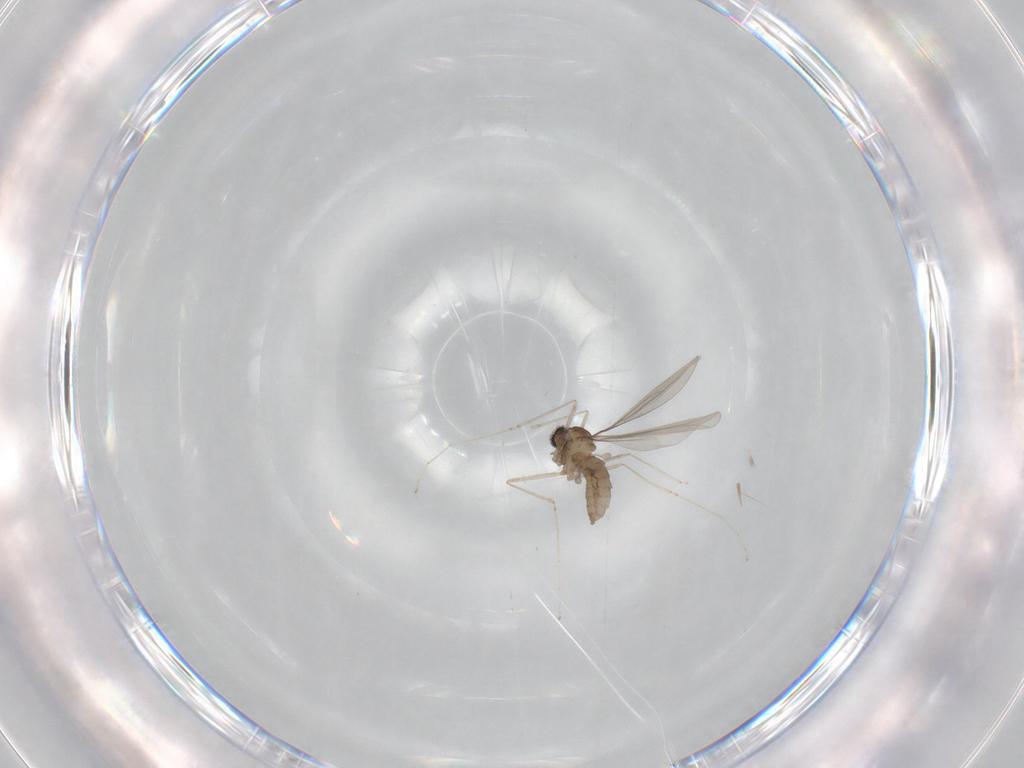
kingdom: Animalia
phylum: Arthropoda
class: Insecta
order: Diptera
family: Cecidomyiidae
